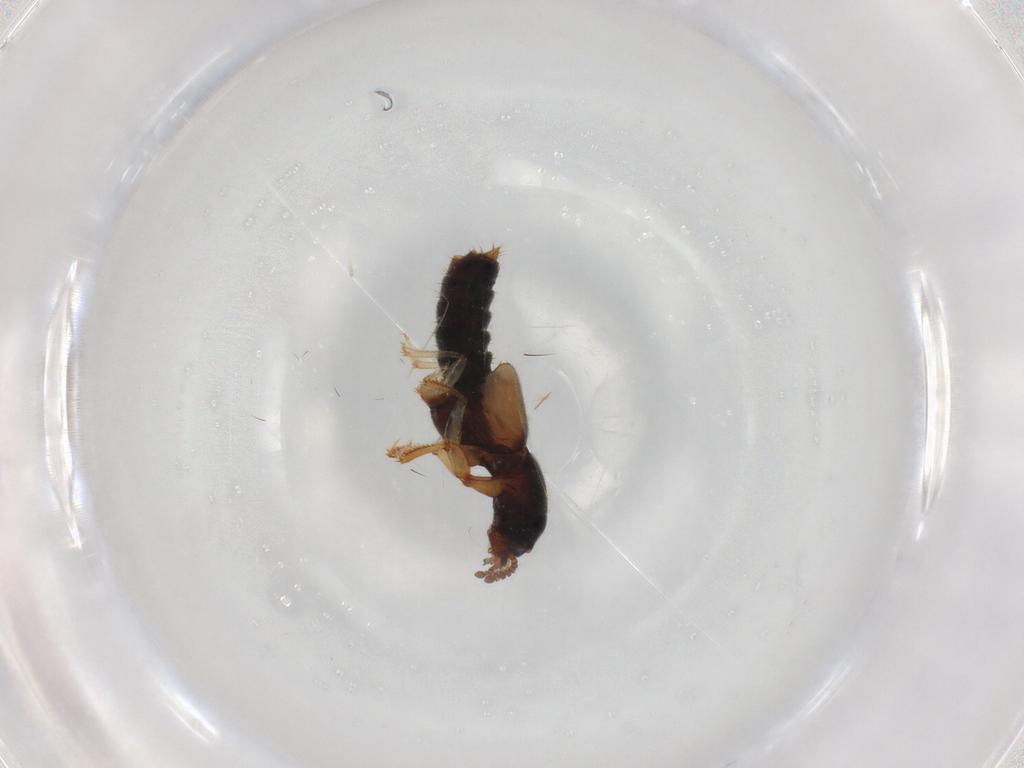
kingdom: Animalia
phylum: Arthropoda
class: Insecta
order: Coleoptera
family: Staphylinidae
